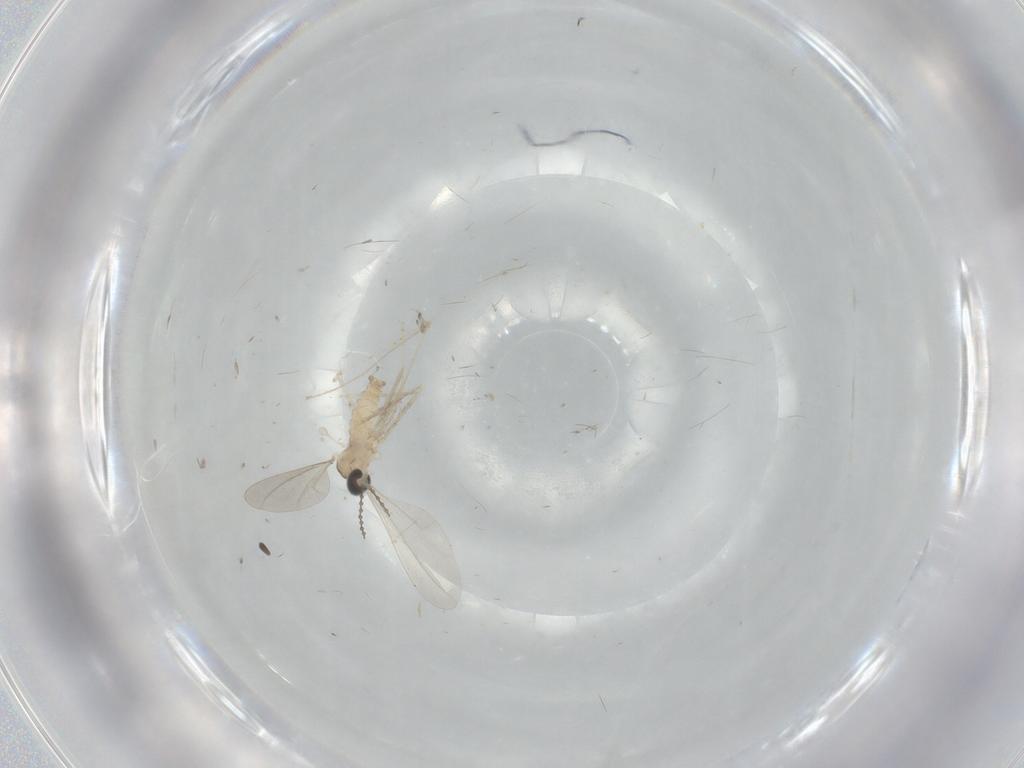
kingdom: Animalia
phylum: Arthropoda
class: Insecta
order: Diptera
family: Cecidomyiidae
